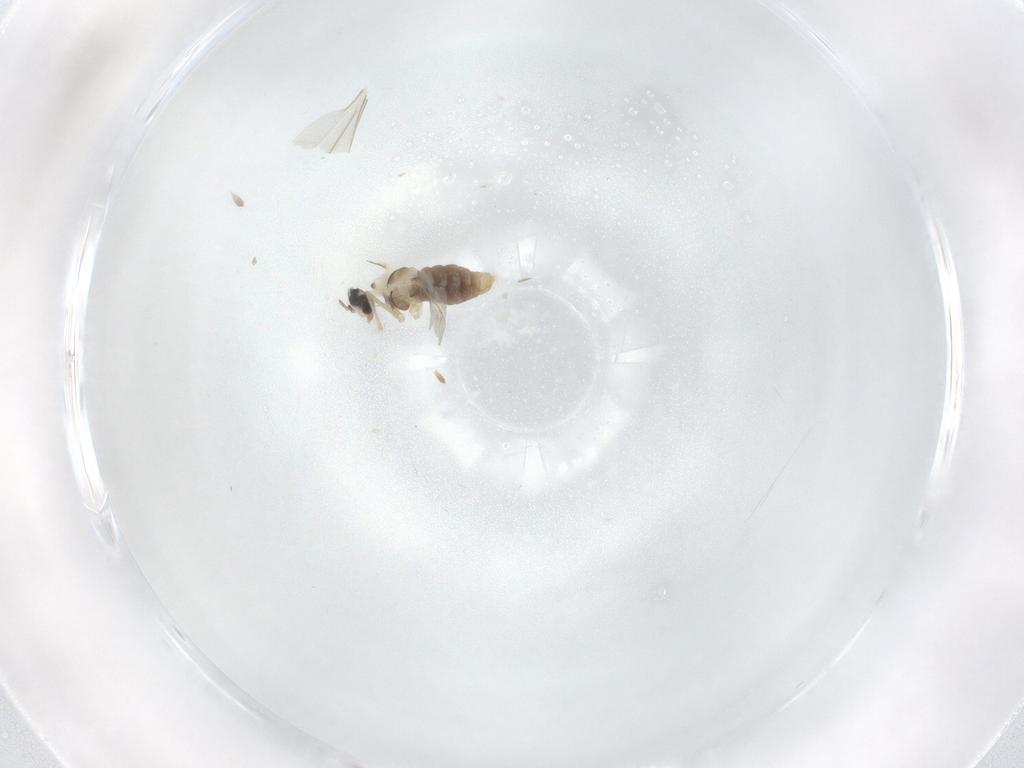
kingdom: Animalia
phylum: Arthropoda
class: Insecta
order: Diptera
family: Cecidomyiidae
